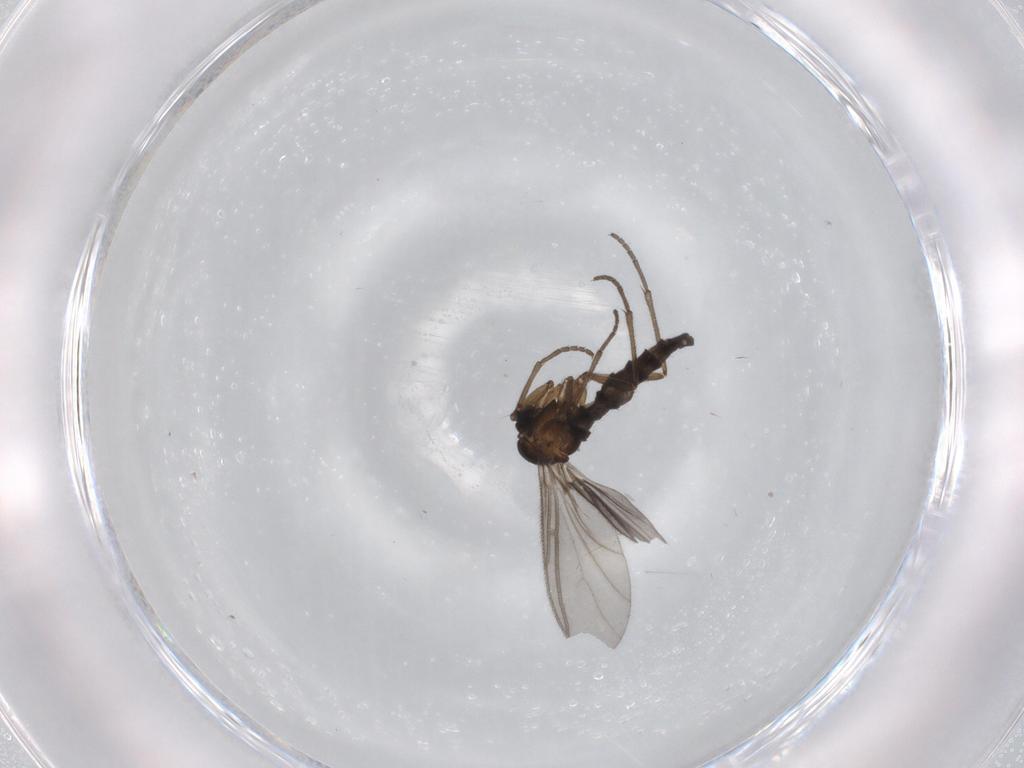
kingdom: Animalia
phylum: Arthropoda
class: Insecta
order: Diptera
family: Sciaridae
